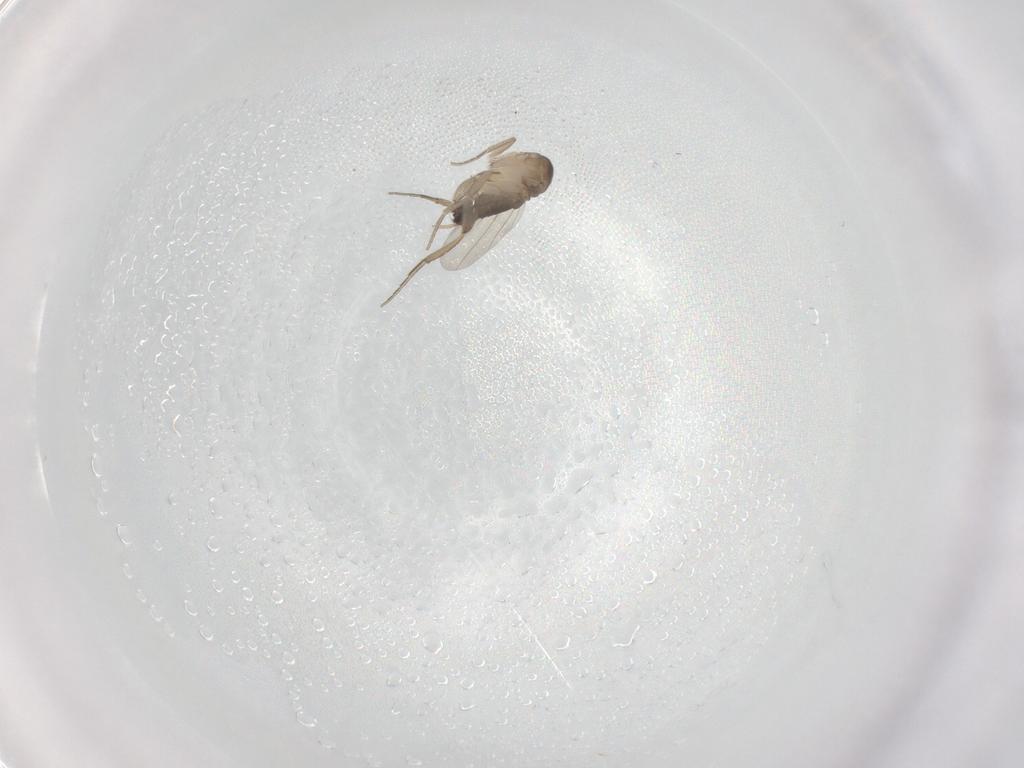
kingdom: Animalia
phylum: Arthropoda
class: Insecta
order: Diptera
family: Phoridae
